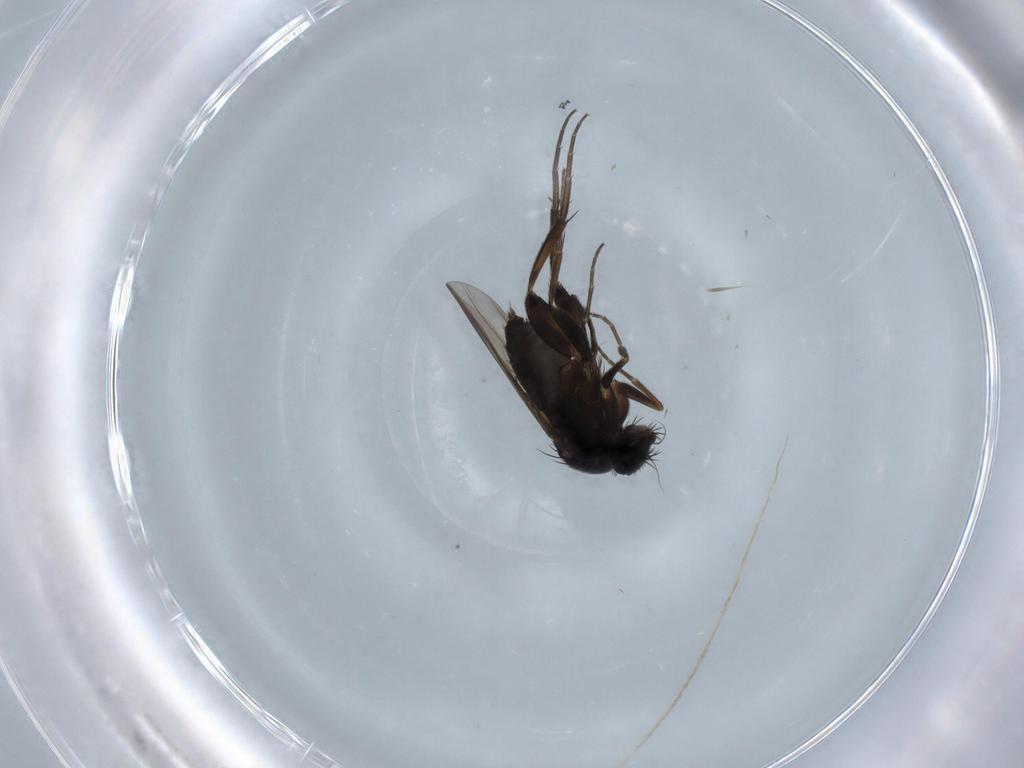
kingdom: Animalia
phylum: Arthropoda
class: Insecta
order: Diptera
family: Phoridae
